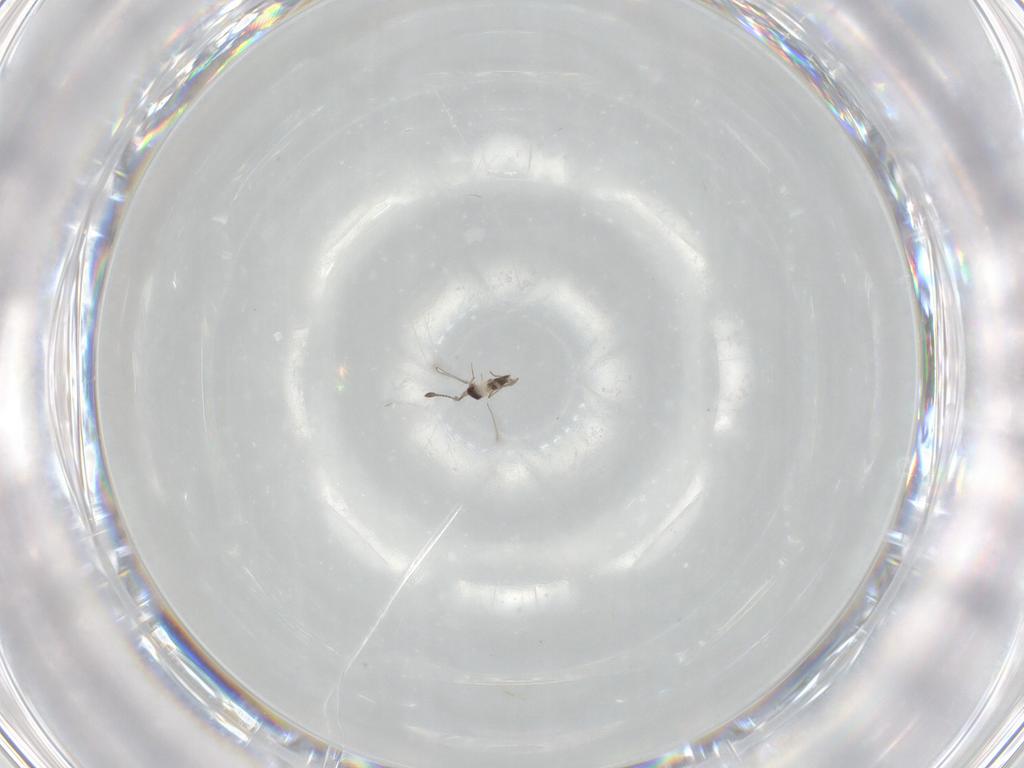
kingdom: Animalia
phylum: Arthropoda
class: Insecta
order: Hymenoptera
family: Mymaridae
